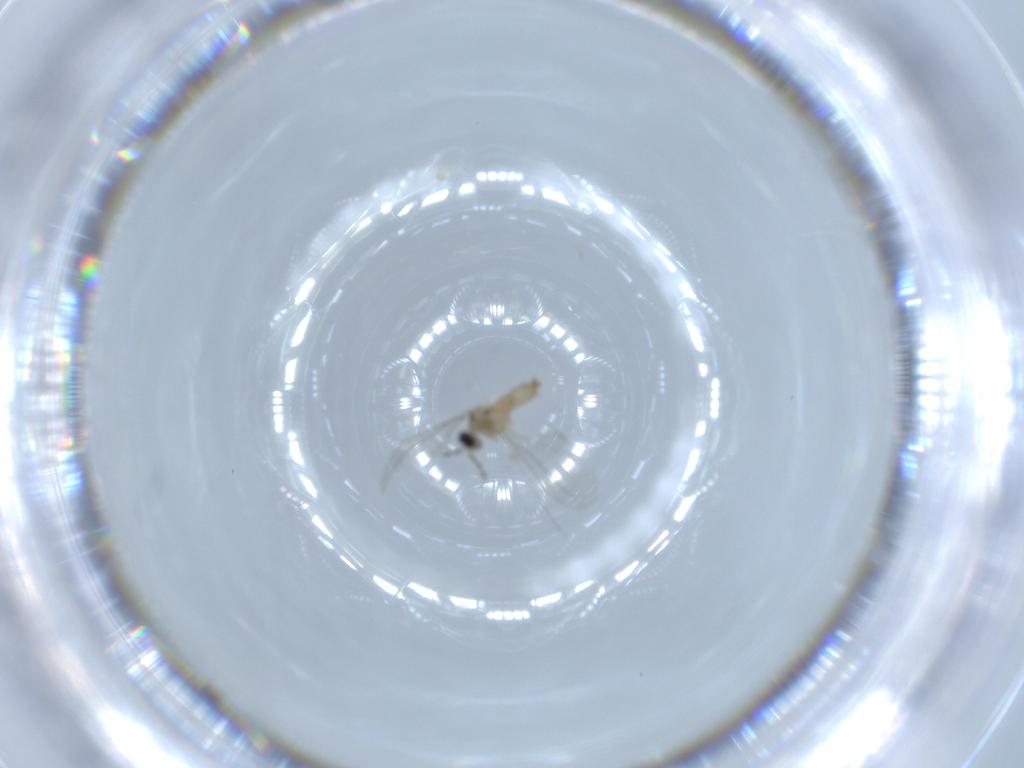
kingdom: Animalia
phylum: Arthropoda
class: Insecta
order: Diptera
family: Cecidomyiidae
